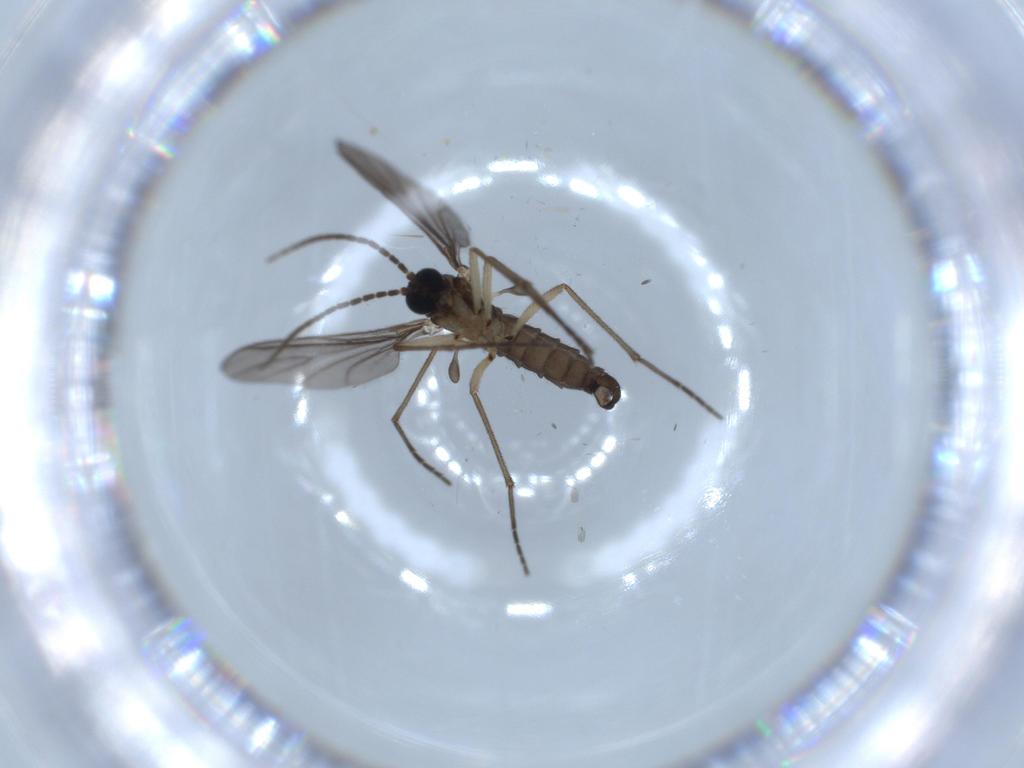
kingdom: Animalia
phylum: Arthropoda
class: Insecta
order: Diptera
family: Sciaridae
